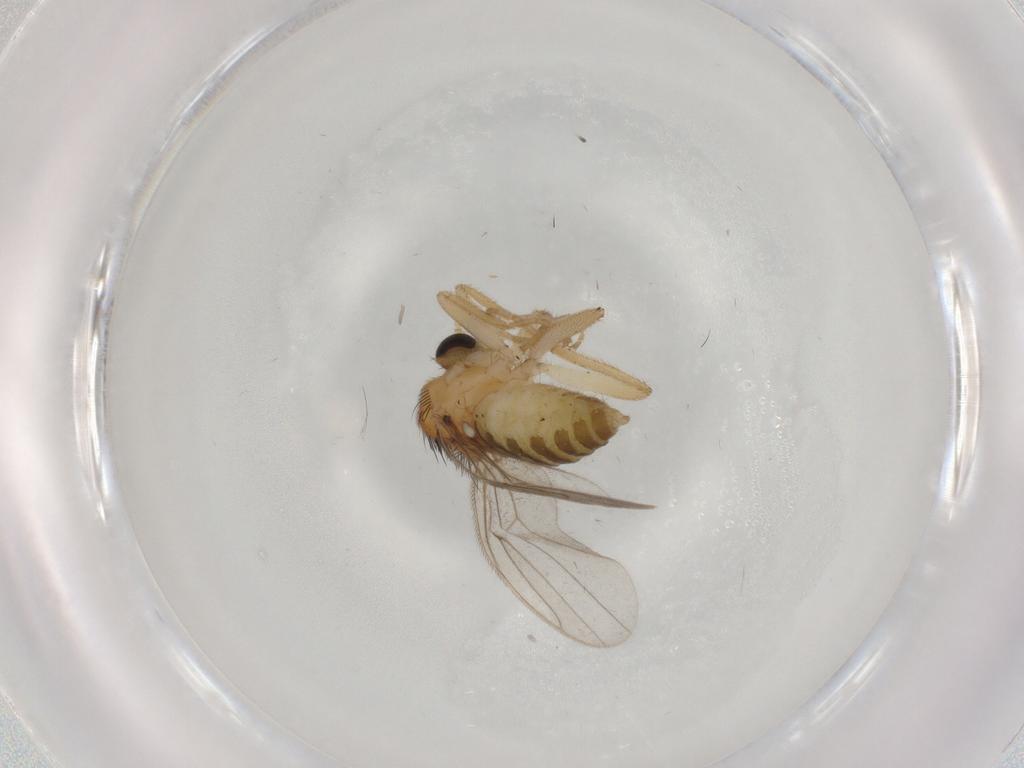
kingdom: Animalia
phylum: Arthropoda
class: Insecta
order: Diptera
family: Hybotidae
